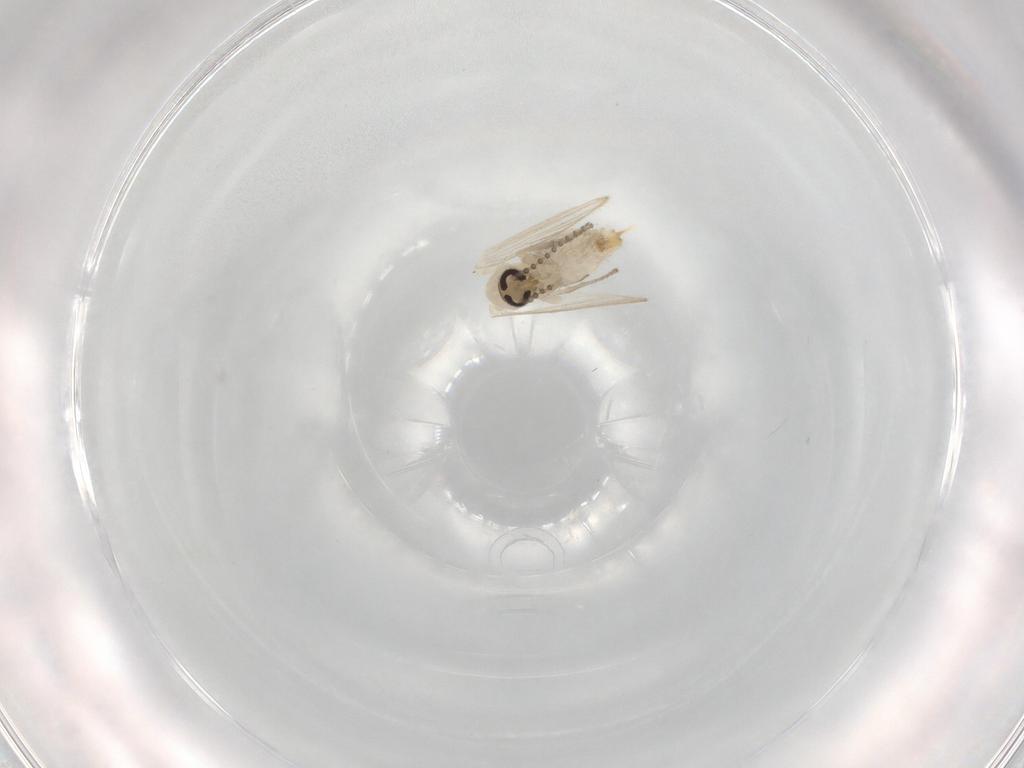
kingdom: Animalia
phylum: Arthropoda
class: Insecta
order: Diptera
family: Psychodidae
